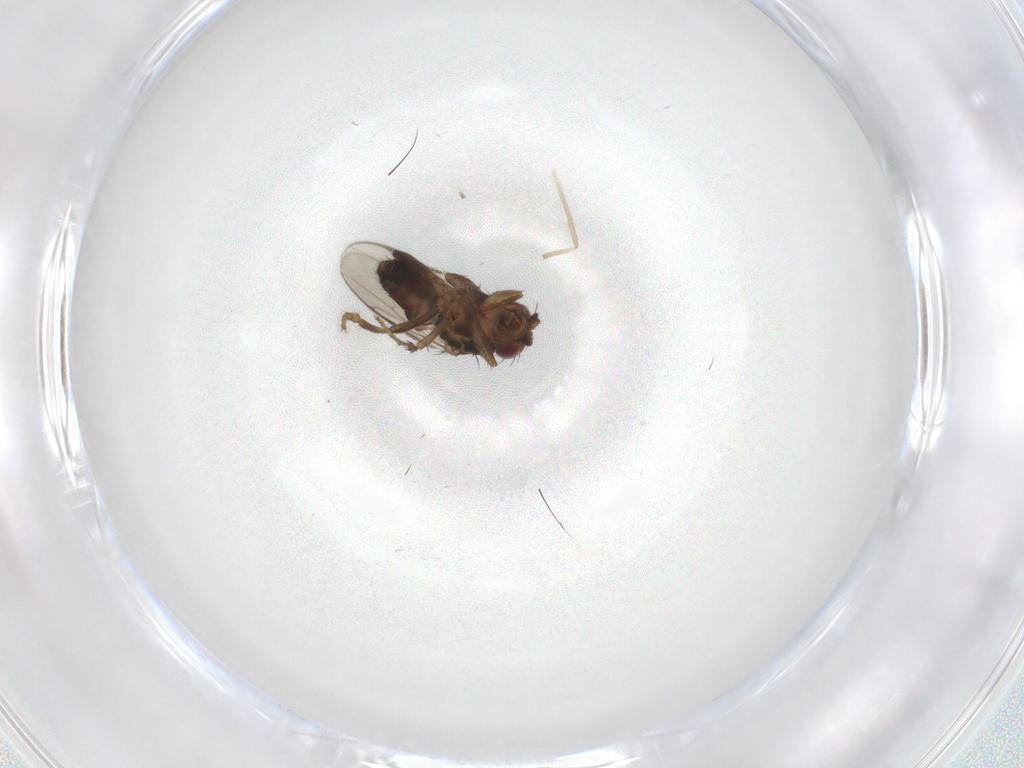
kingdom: Animalia
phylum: Arthropoda
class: Insecta
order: Diptera
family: Chironomidae
